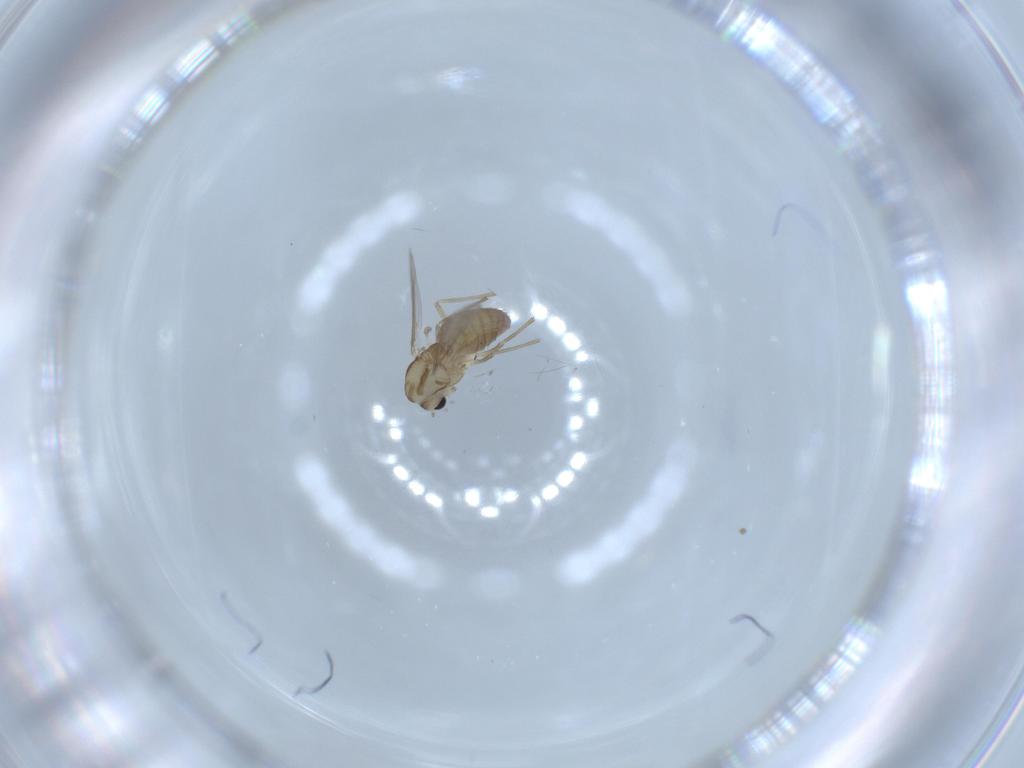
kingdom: Animalia
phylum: Arthropoda
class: Insecta
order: Diptera
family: Chironomidae
